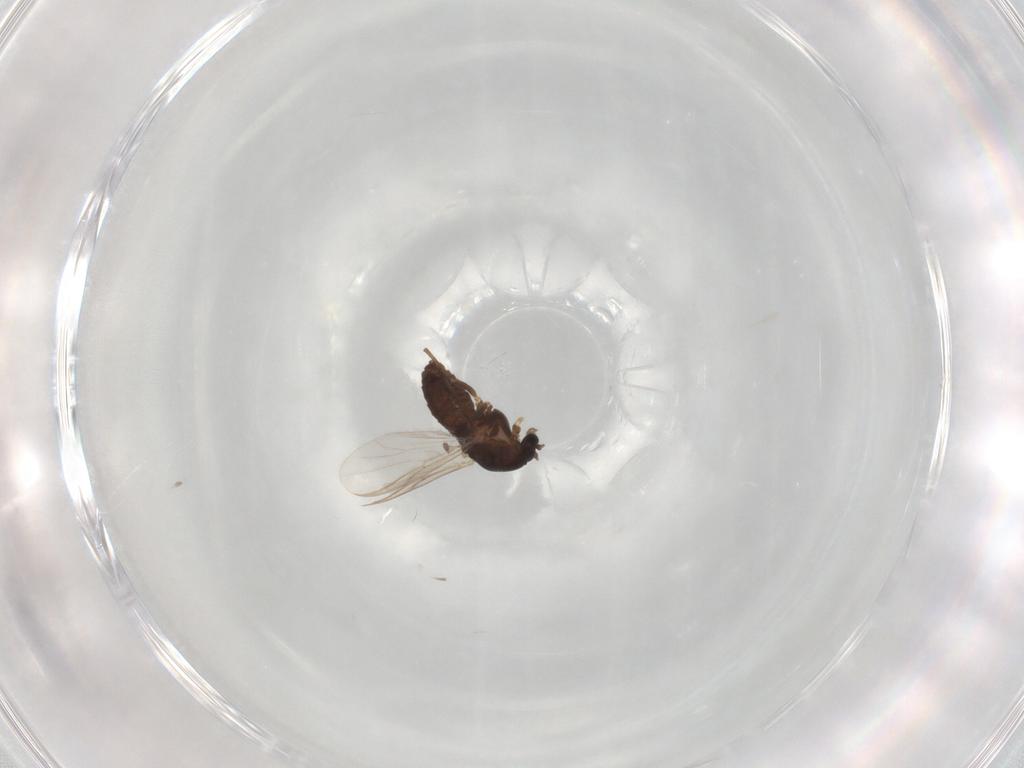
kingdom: Animalia
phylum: Arthropoda
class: Insecta
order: Diptera
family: Chironomidae
